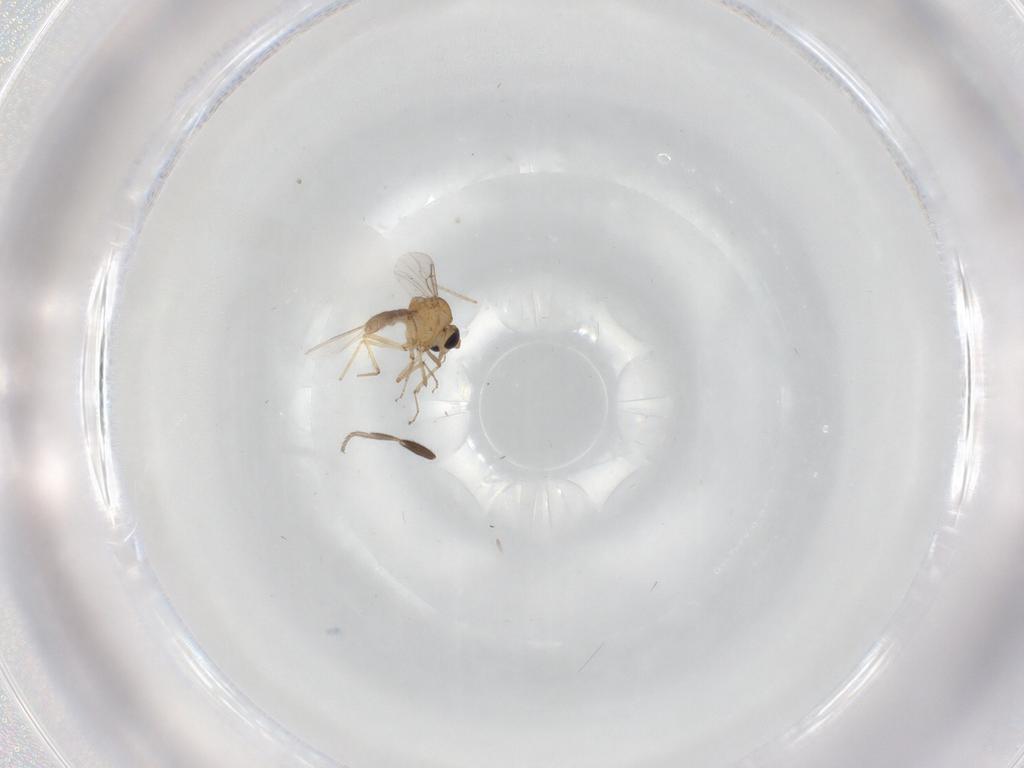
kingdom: Animalia
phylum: Arthropoda
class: Insecta
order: Diptera
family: Milichiidae
